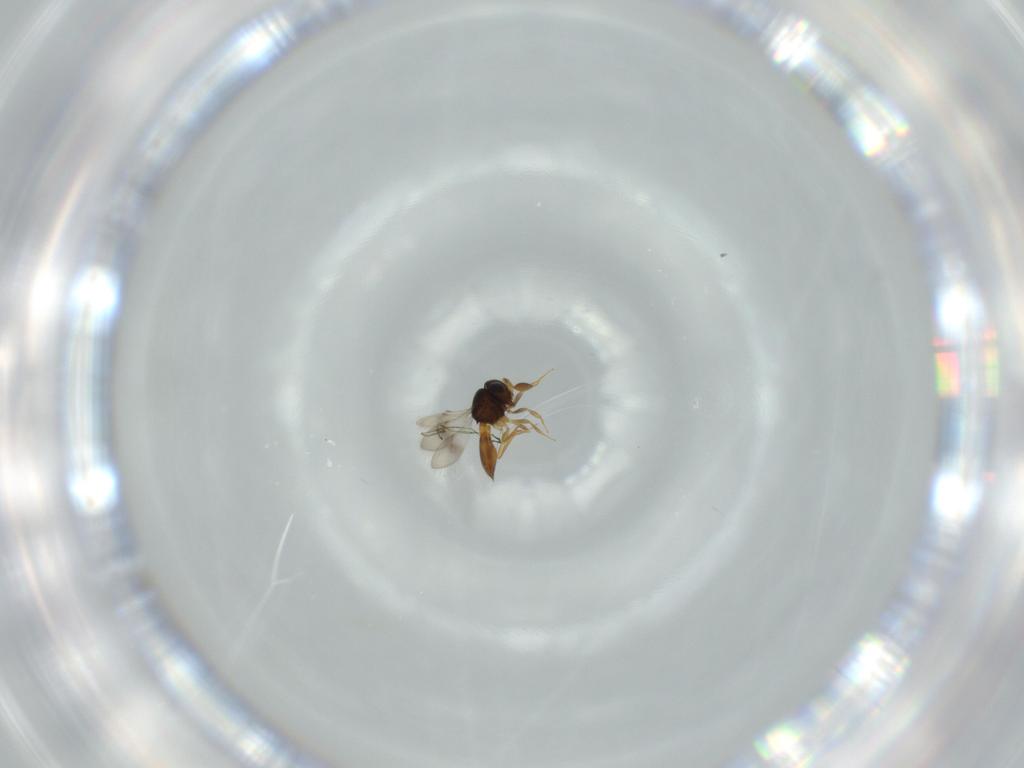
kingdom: Animalia
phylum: Arthropoda
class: Insecta
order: Hymenoptera
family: Scelionidae
